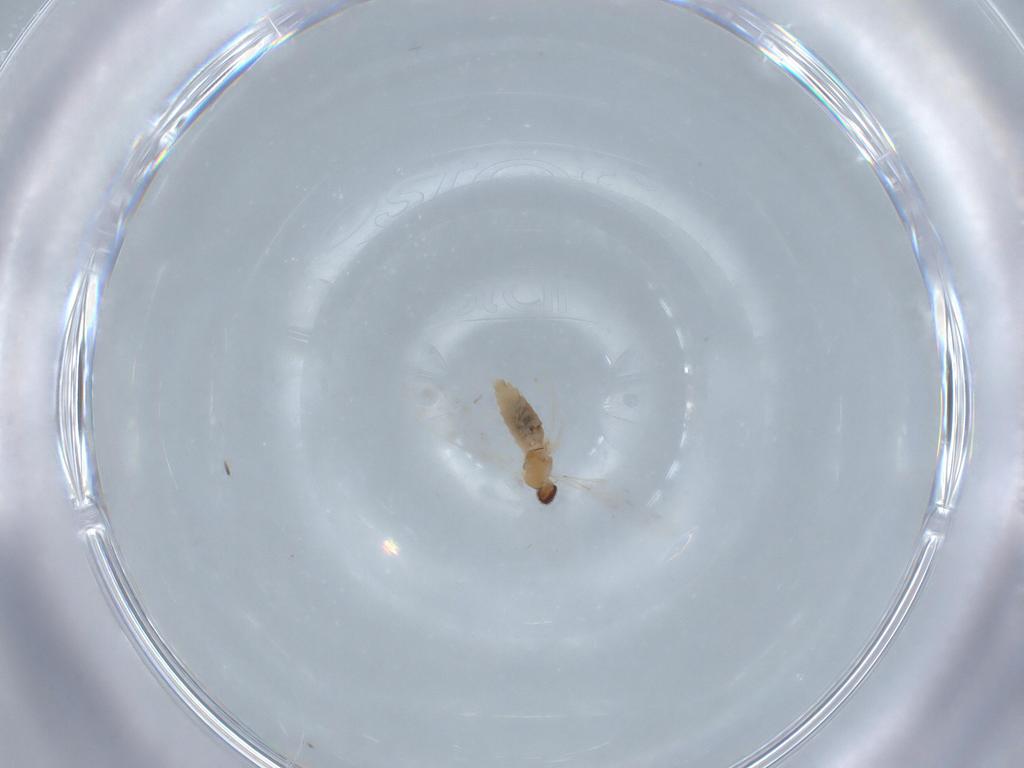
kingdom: Animalia
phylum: Arthropoda
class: Insecta
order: Diptera
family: Cecidomyiidae
